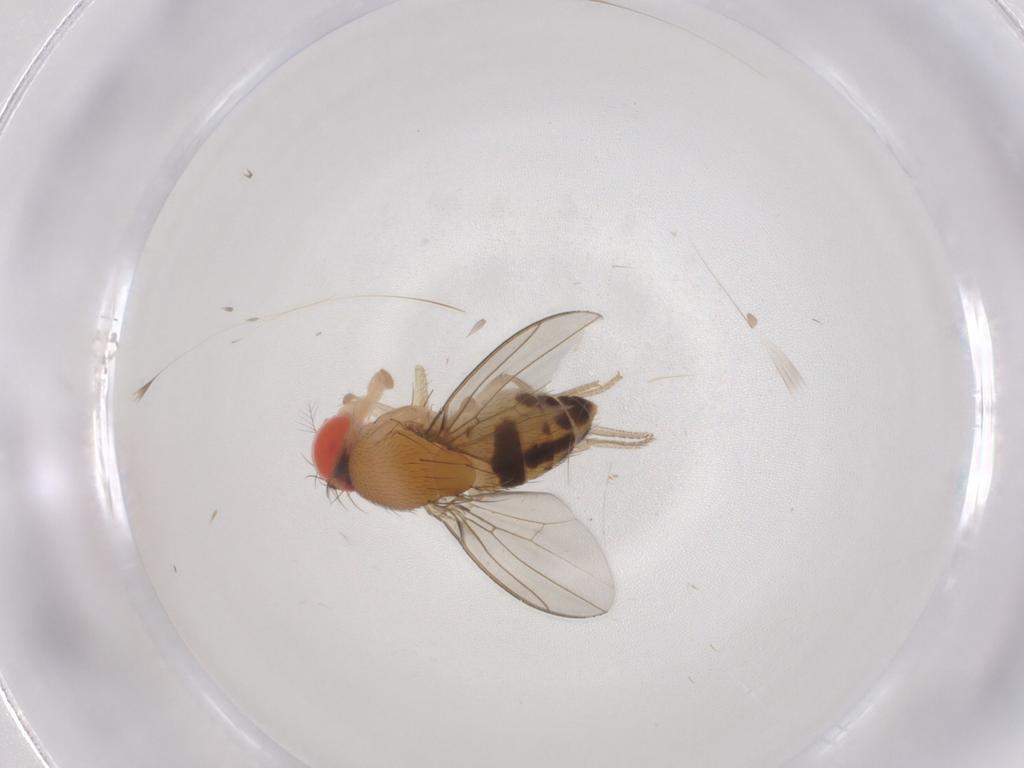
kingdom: Animalia
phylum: Arthropoda
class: Insecta
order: Diptera
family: Drosophilidae
